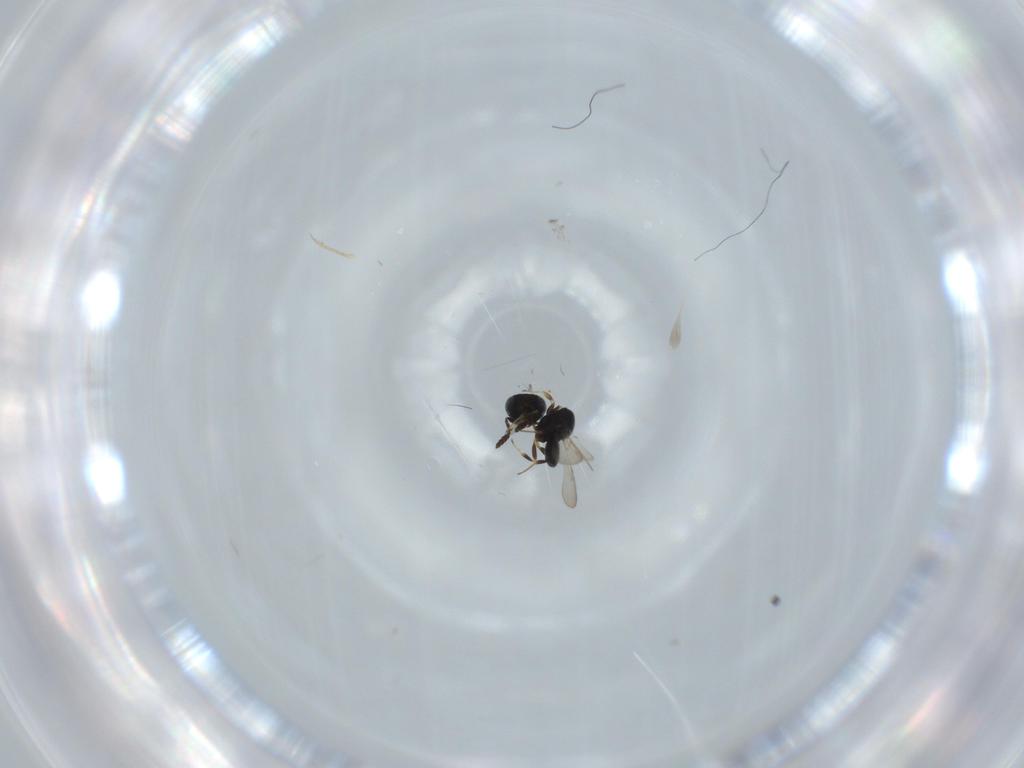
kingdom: Animalia
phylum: Arthropoda
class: Insecta
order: Hymenoptera
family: Scelionidae
